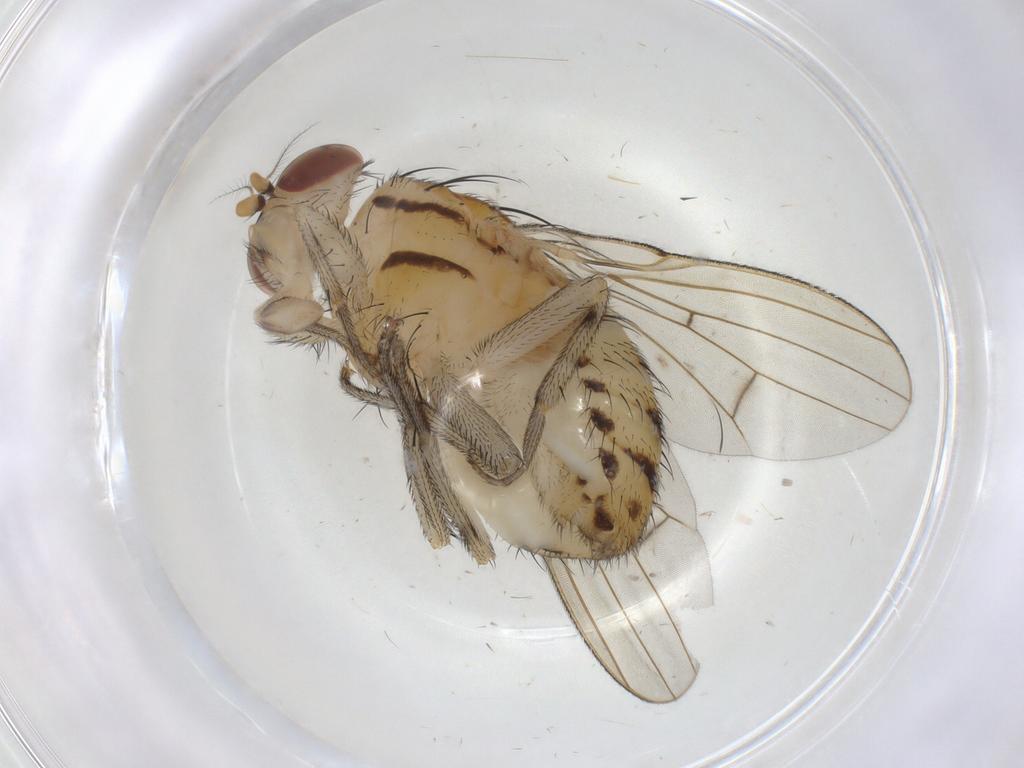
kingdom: Animalia
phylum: Arthropoda
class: Insecta
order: Diptera
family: Lauxaniidae
